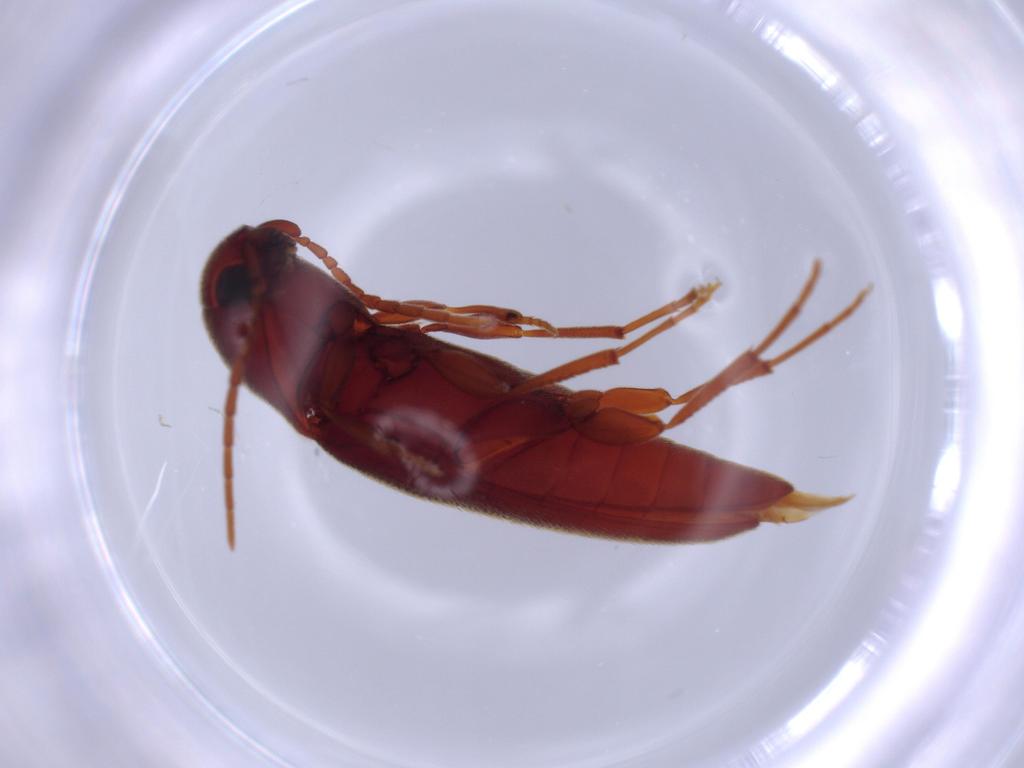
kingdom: Animalia
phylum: Arthropoda
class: Insecta
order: Coleoptera
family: Eucnemidae
